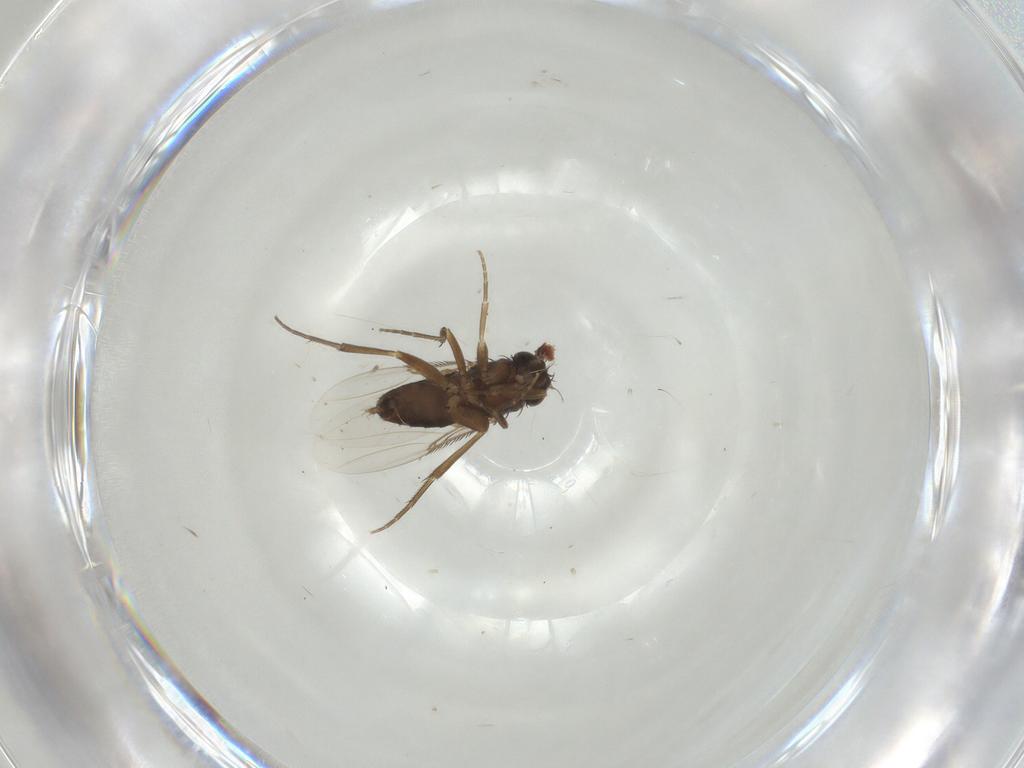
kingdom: Animalia
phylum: Arthropoda
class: Insecta
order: Diptera
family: Phoridae
